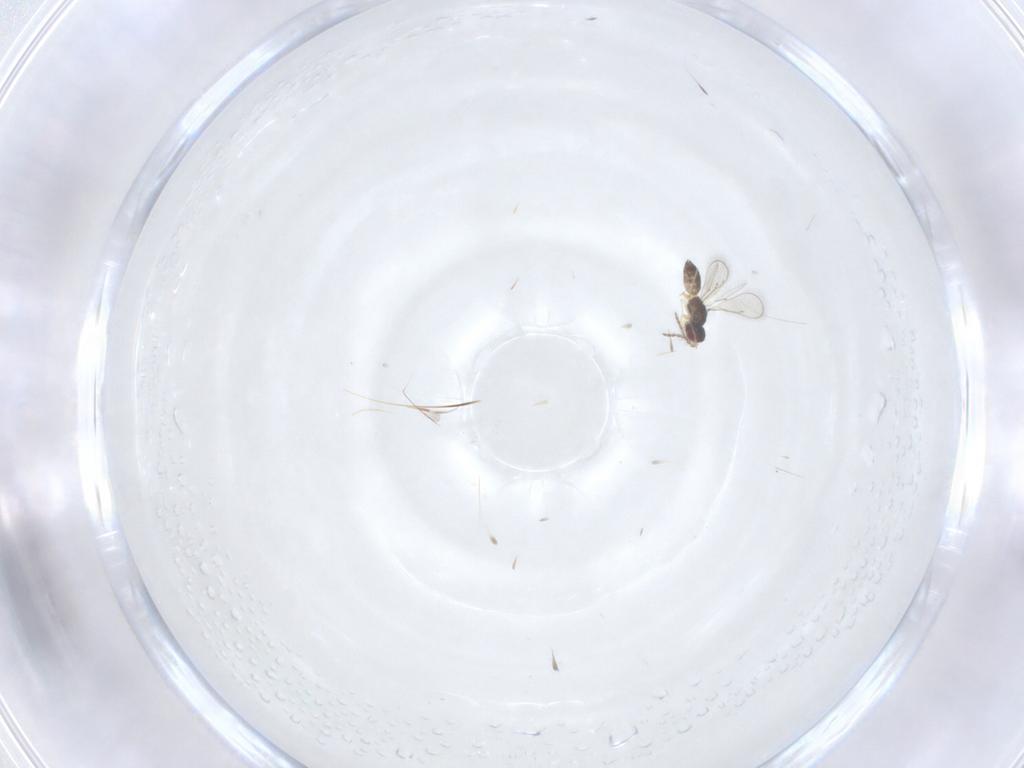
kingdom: Animalia
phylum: Arthropoda
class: Insecta
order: Hymenoptera
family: Eulophidae
